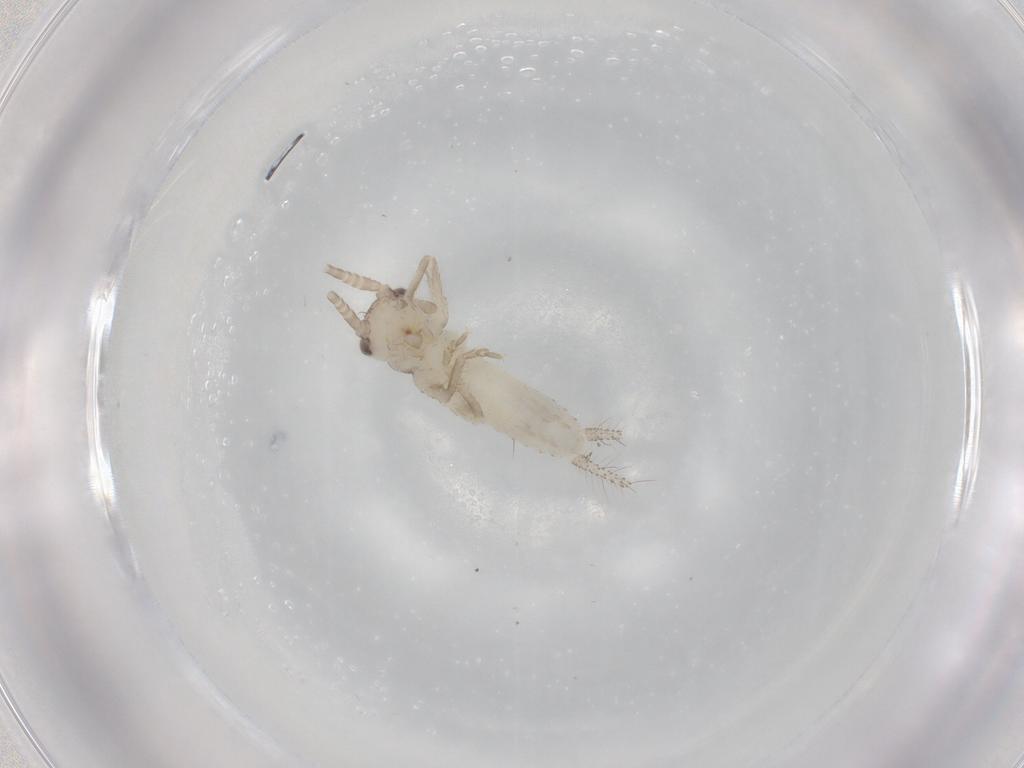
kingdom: Animalia
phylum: Arthropoda
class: Insecta
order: Orthoptera
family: Gryllidae
